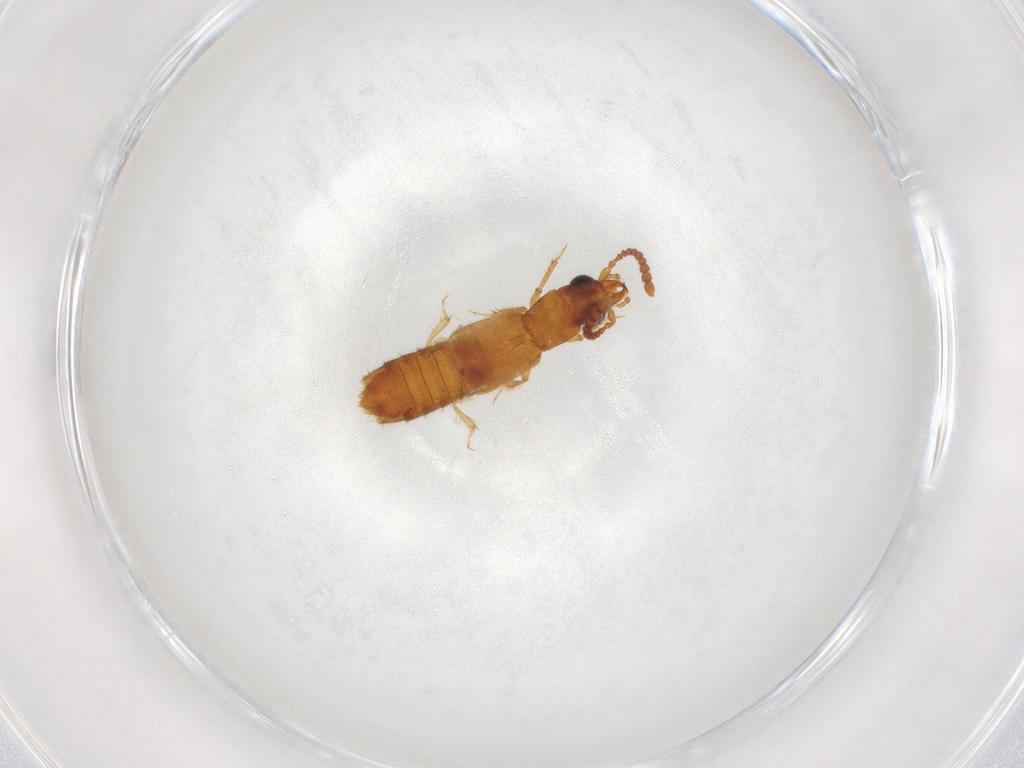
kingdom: Animalia
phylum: Arthropoda
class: Insecta
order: Coleoptera
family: Staphylinidae
